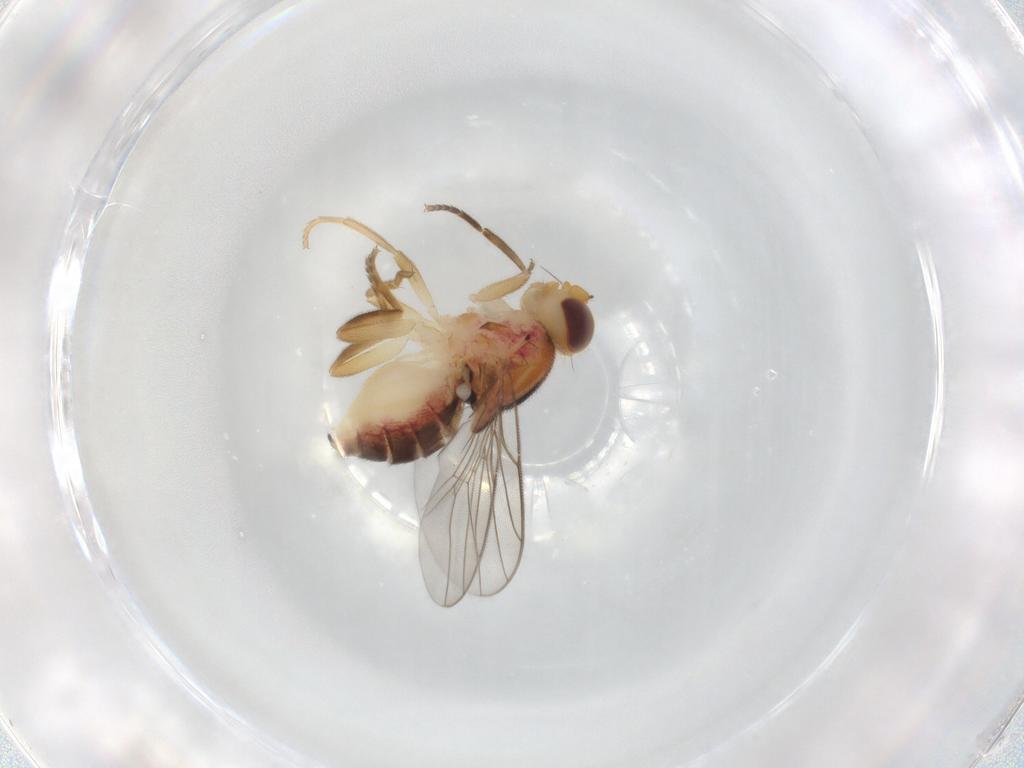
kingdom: Animalia
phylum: Arthropoda
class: Insecta
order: Diptera
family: Chloropidae
